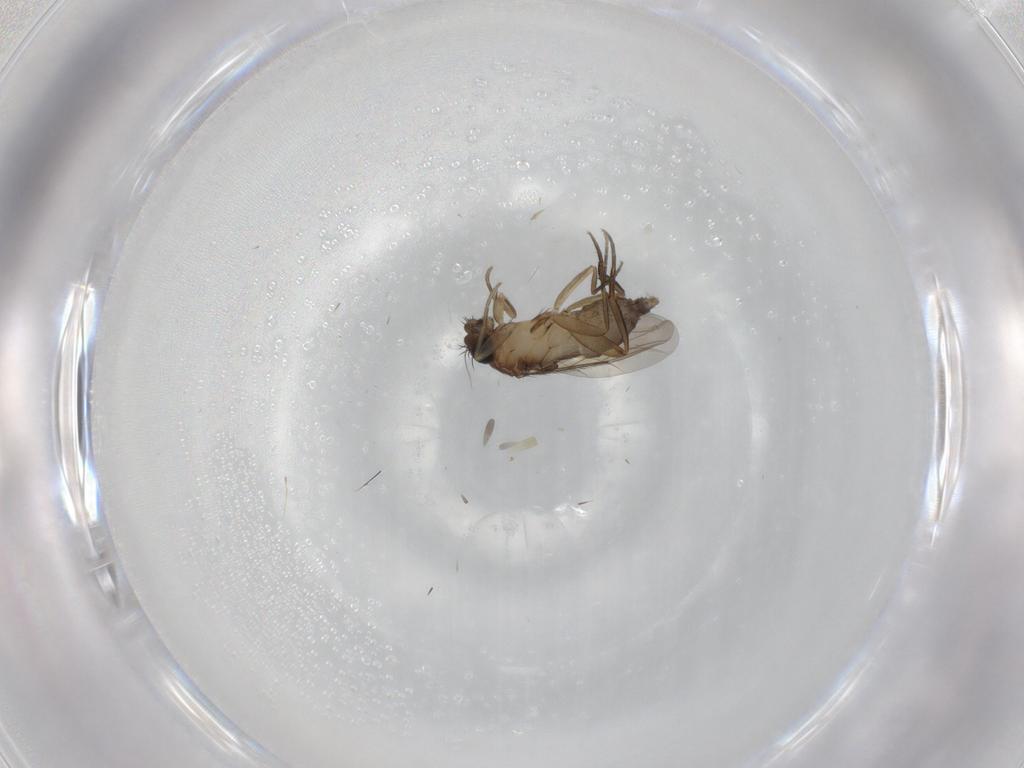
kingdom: Animalia
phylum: Arthropoda
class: Insecta
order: Diptera
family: Phoridae
